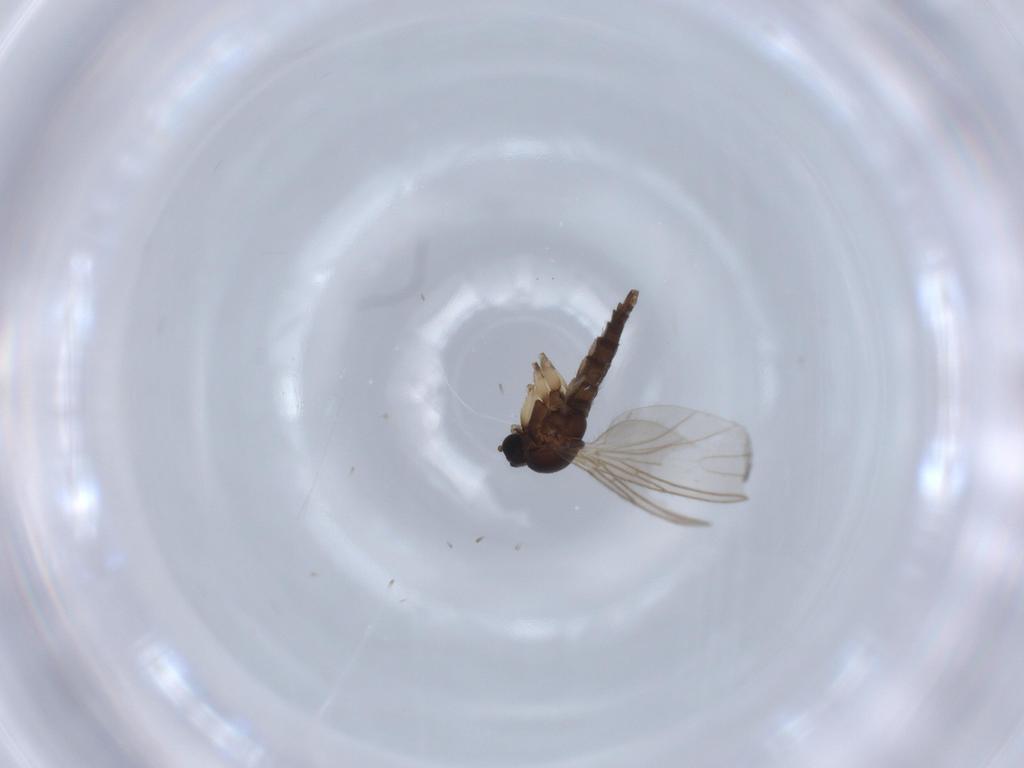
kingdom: Animalia
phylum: Arthropoda
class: Insecta
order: Diptera
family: Sciaridae
